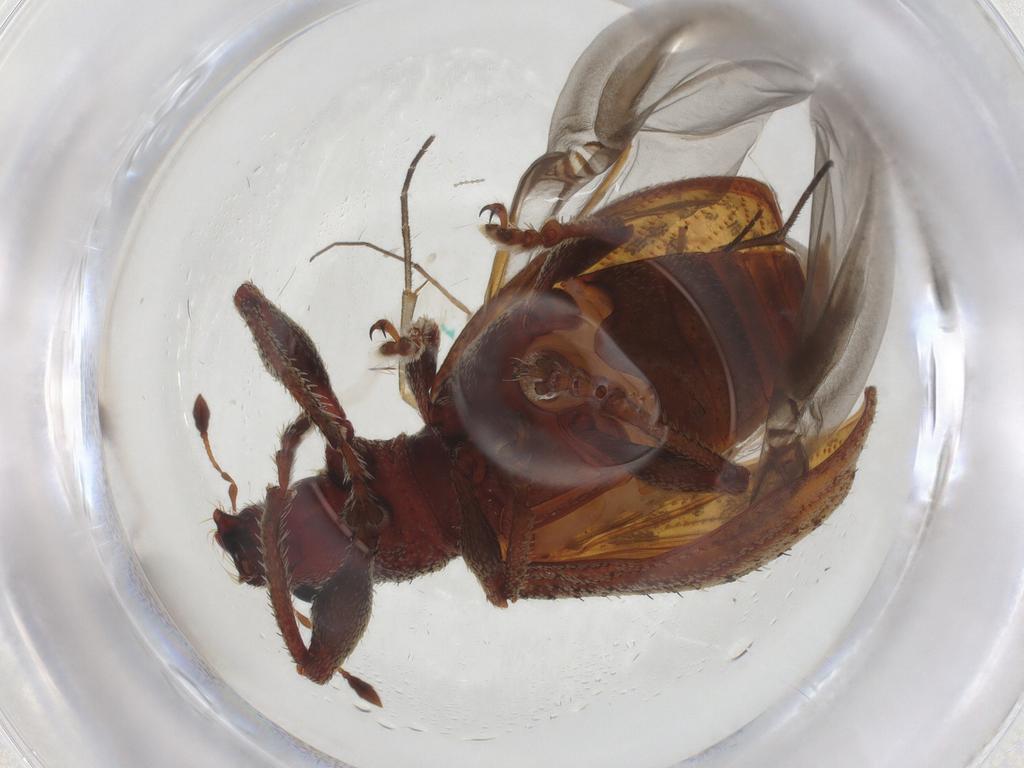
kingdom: Animalia
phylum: Arthropoda
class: Insecta
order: Coleoptera
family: Curculionidae
